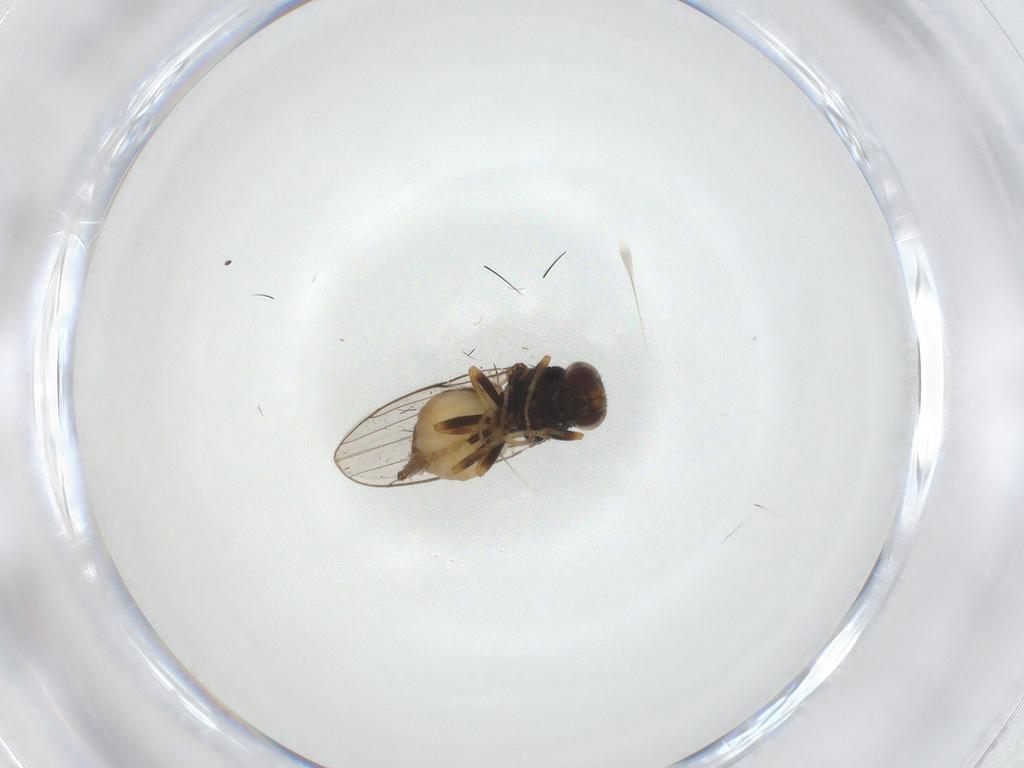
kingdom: Animalia
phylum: Arthropoda
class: Insecta
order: Diptera
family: Chloropidae
